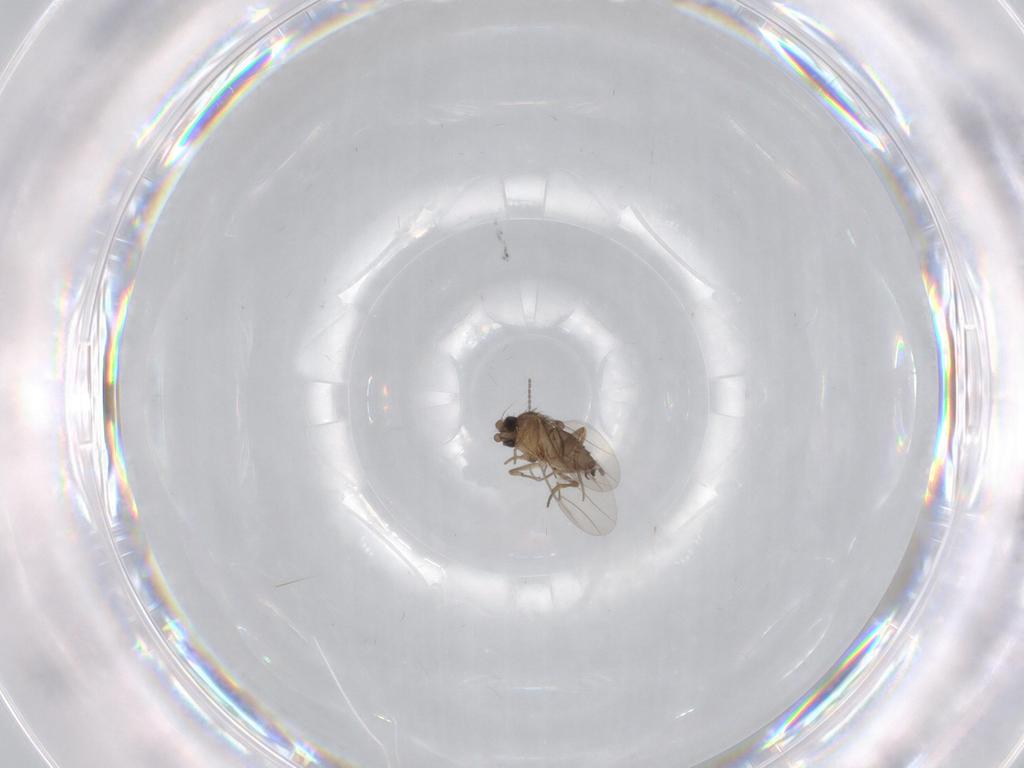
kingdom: Animalia
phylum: Arthropoda
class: Insecta
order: Diptera
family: Phoridae
